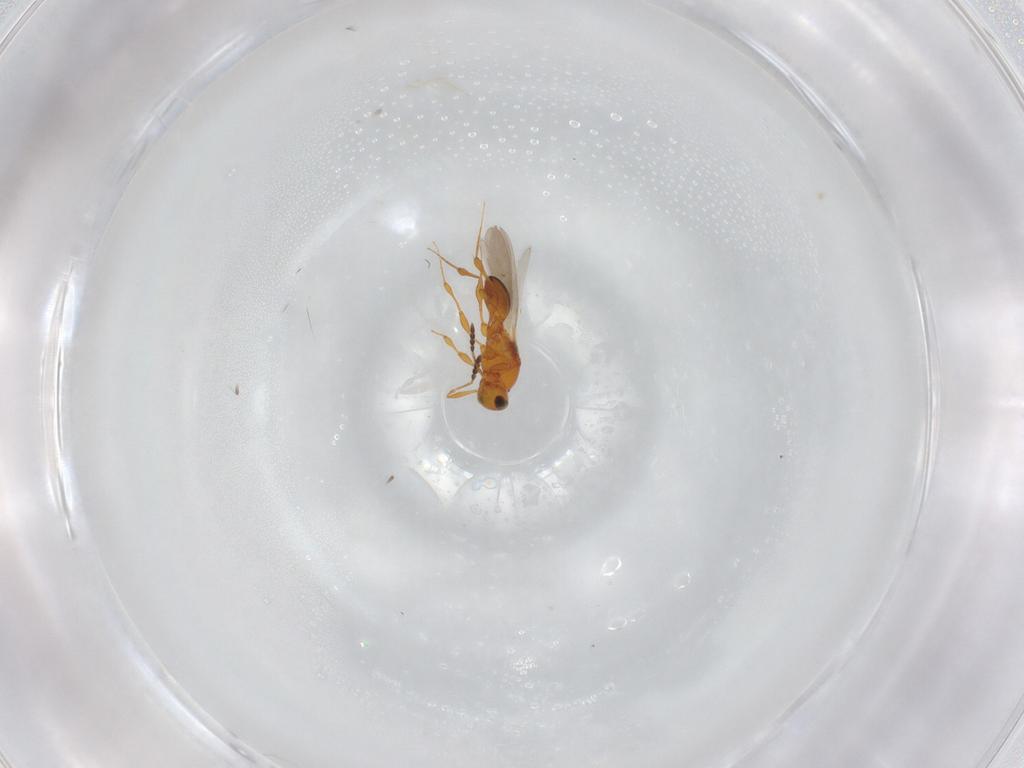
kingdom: Animalia
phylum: Arthropoda
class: Insecta
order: Hymenoptera
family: Platygastridae
